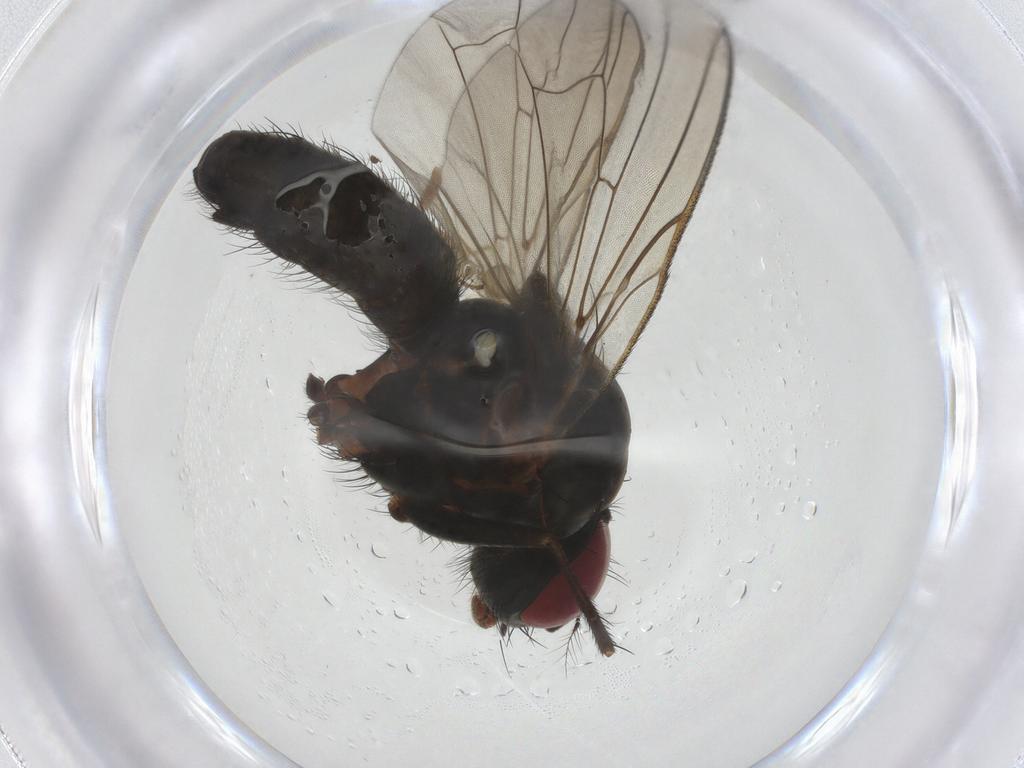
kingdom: Animalia
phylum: Arthropoda
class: Insecta
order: Diptera
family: Anthomyiidae
